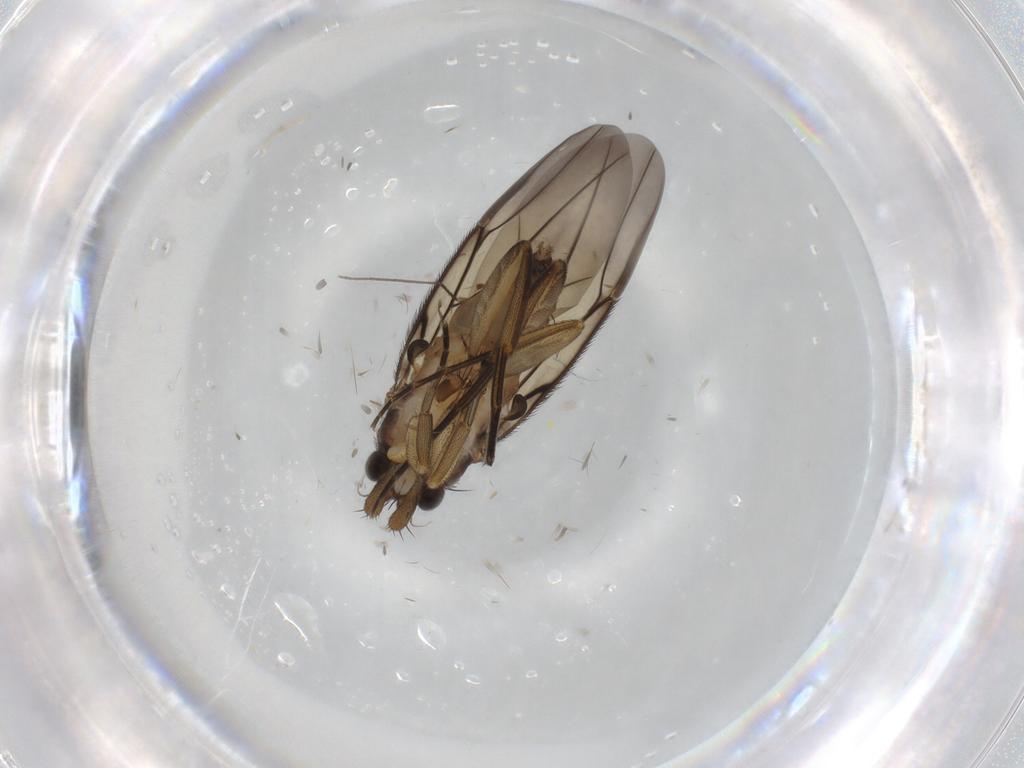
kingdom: Animalia
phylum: Arthropoda
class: Insecta
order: Diptera
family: Phoridae
